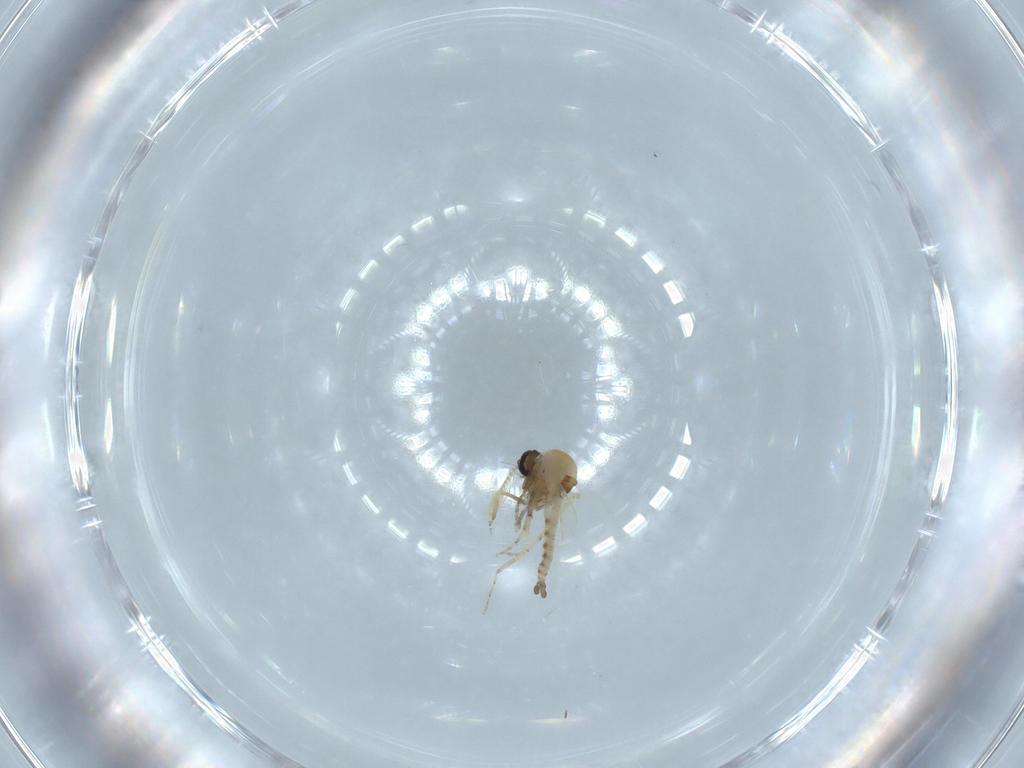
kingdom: Animalia
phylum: Arthropoda
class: Insecta
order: Diptera
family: Ceratopogonidae
